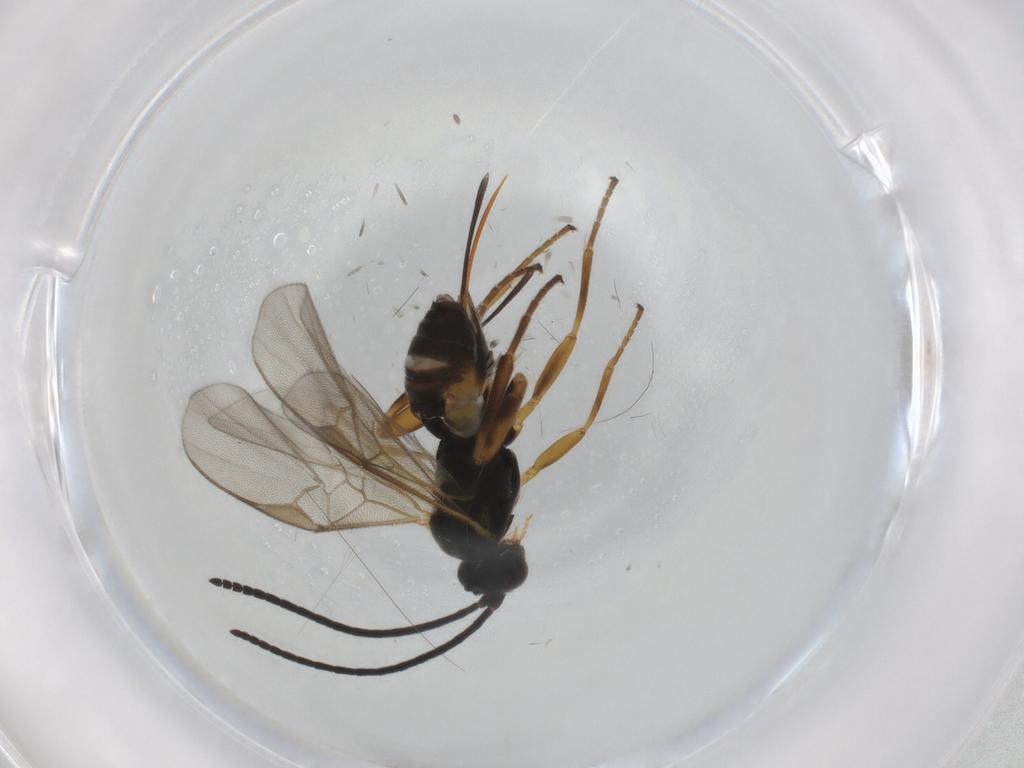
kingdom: Animalia
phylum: Arthropoda
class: Insecta
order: Hymenoptera
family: Braconidae
